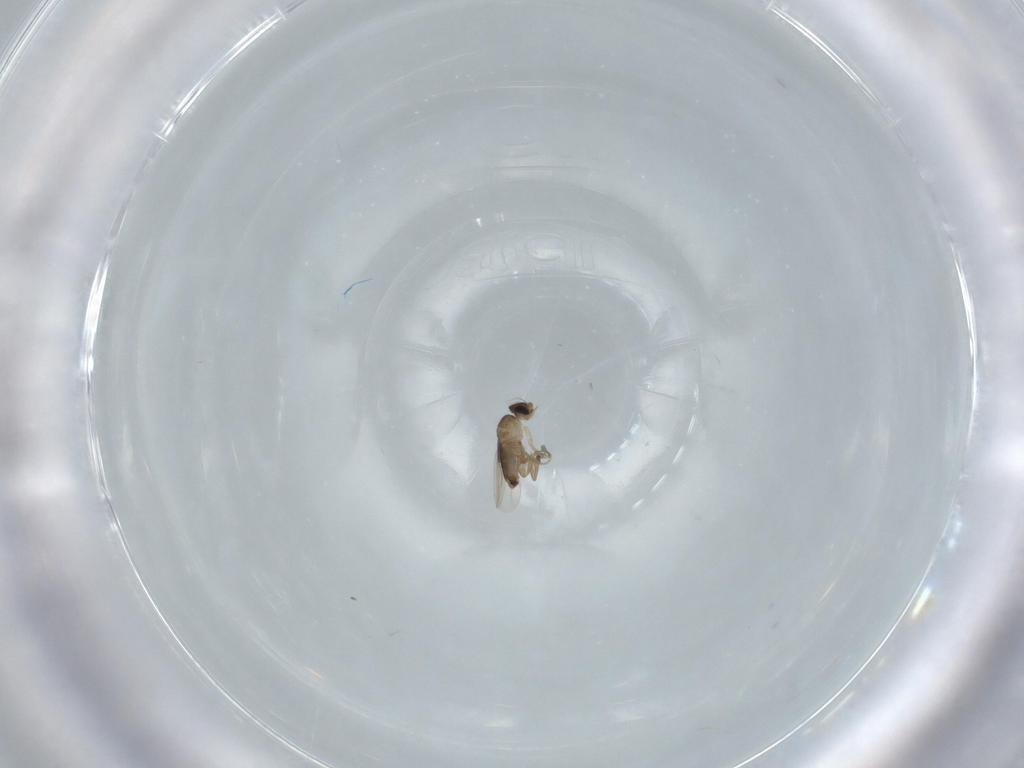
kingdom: Animalia
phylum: Arthropoda
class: Insecta
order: Diptera
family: Phoridae
